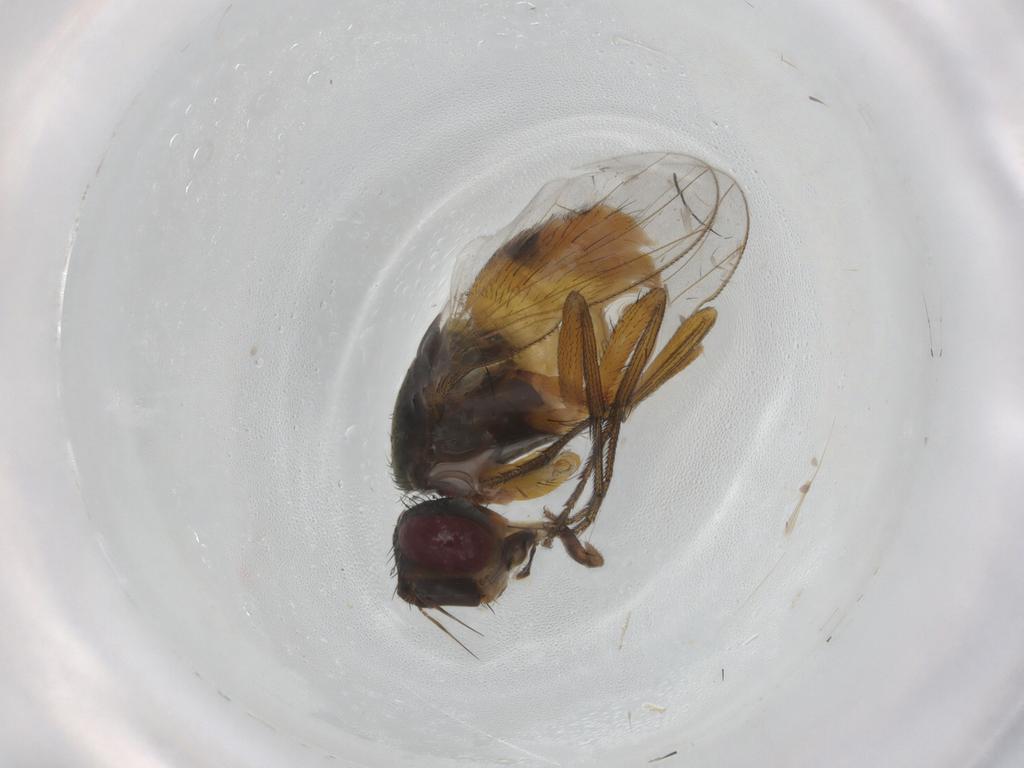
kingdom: Animalia
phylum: Arthropoda
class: Insecta
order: Diptera
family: Muscidae
